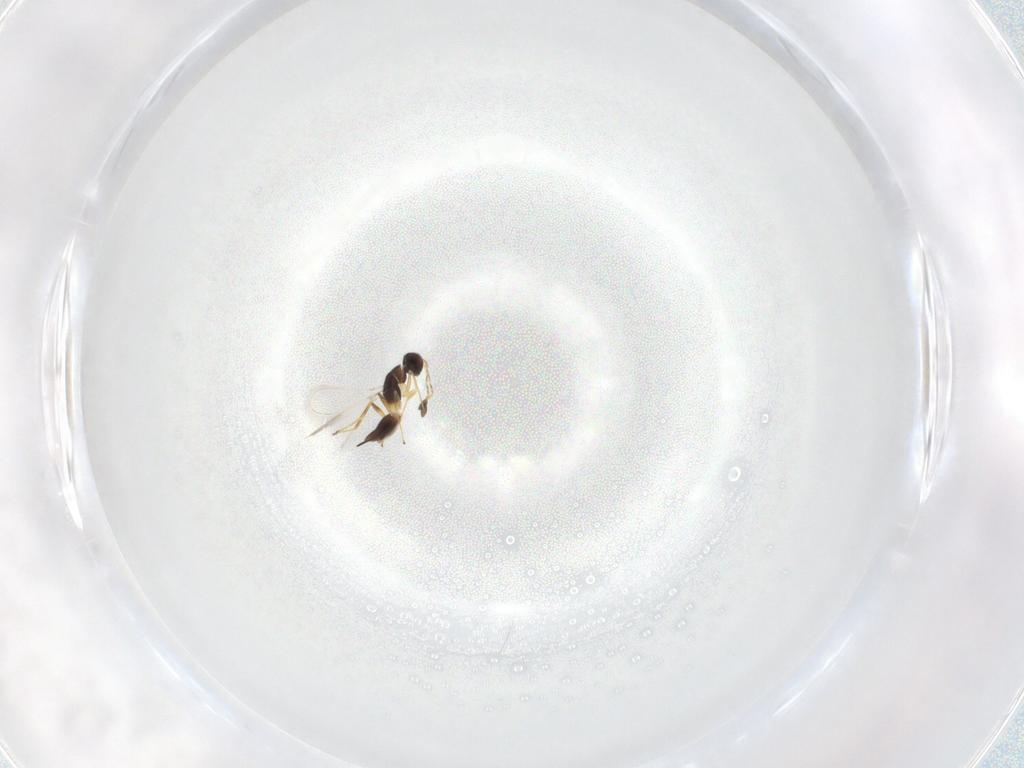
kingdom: Animalia
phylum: Arthropoda
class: Insecta
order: Hymenoptera
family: Mymaridae
